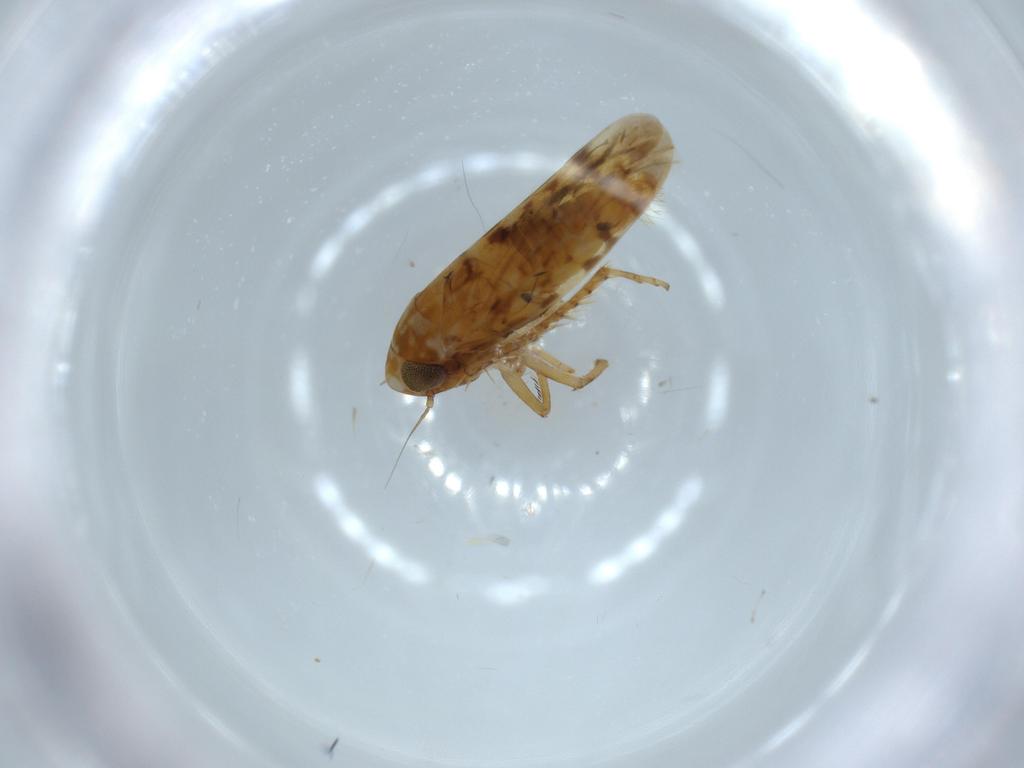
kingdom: Animalia
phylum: Arthropoda
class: Insecta
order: Hemiptera
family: Cicadellidae
